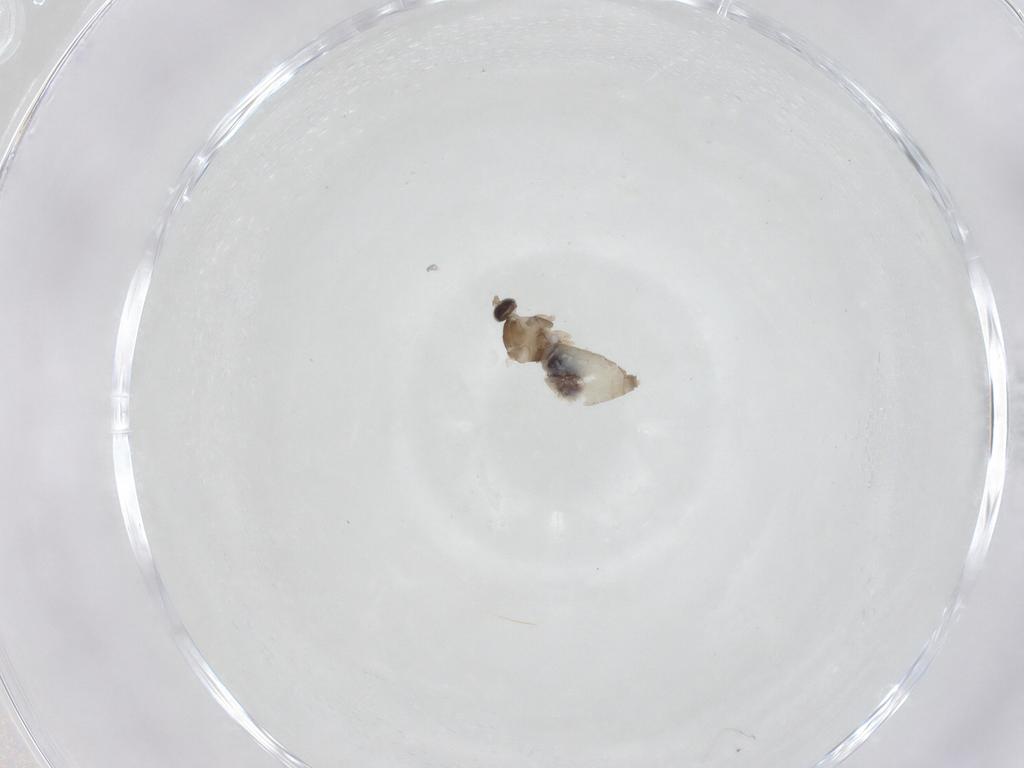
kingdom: Animalia
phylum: Arthropoda
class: Insecta
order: Diptera
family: Cecidomyiidae
